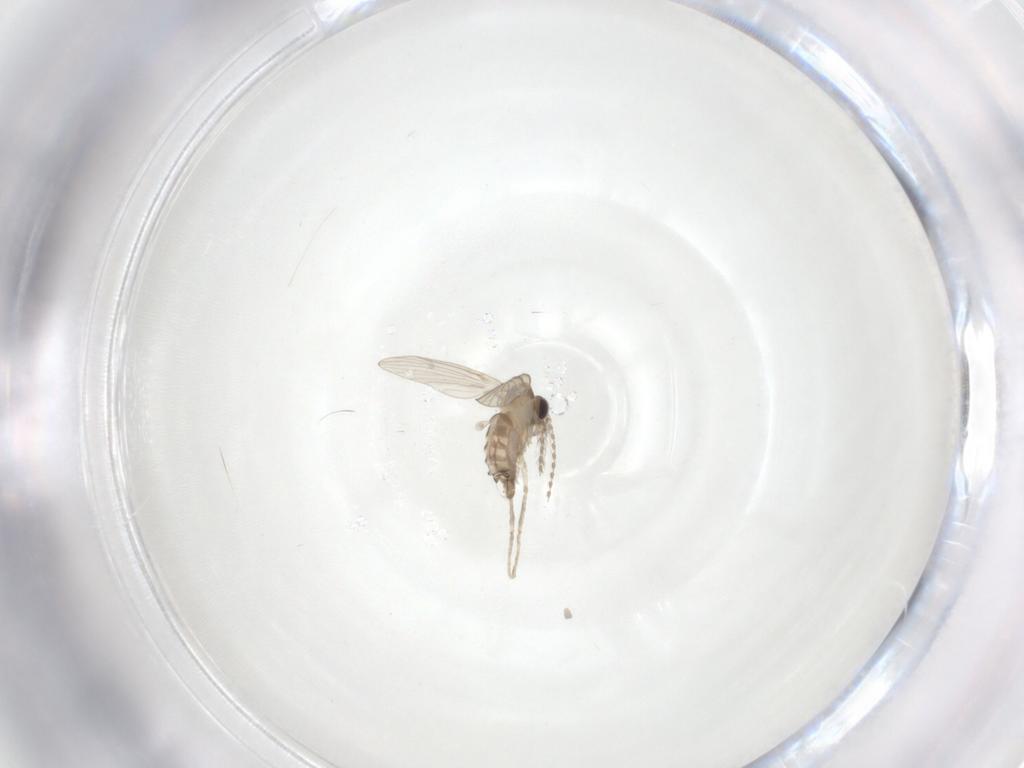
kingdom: Animalia
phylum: Arthropoda
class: Insecta
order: Diptera
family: Psychodidae
